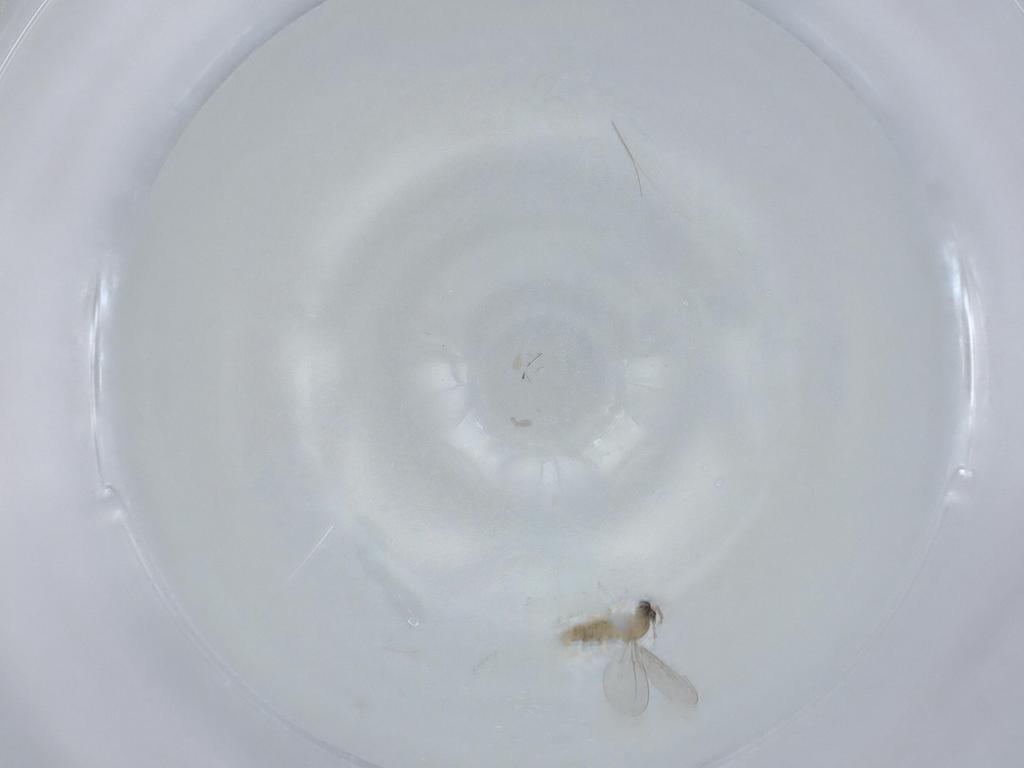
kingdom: Animalia
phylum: Arthropoda
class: Insecta
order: Diptera
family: Cecidomyiidae
